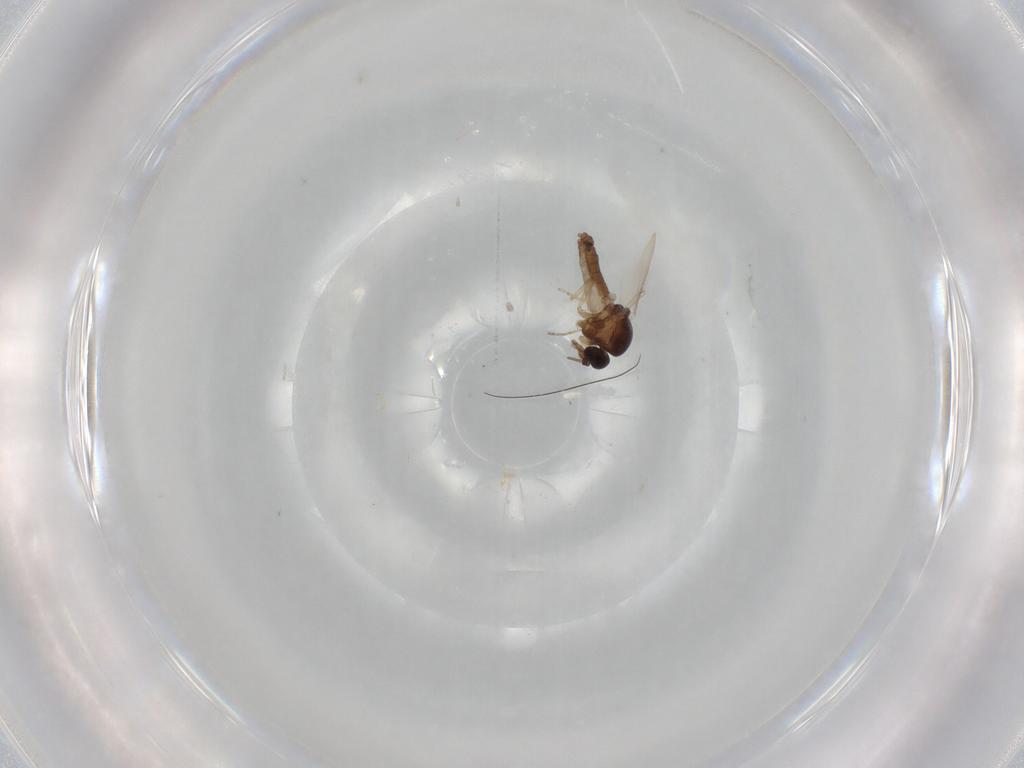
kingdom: Animalia
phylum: Arthropoda
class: Insecta
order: Diptera
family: Ceratopogonidae
